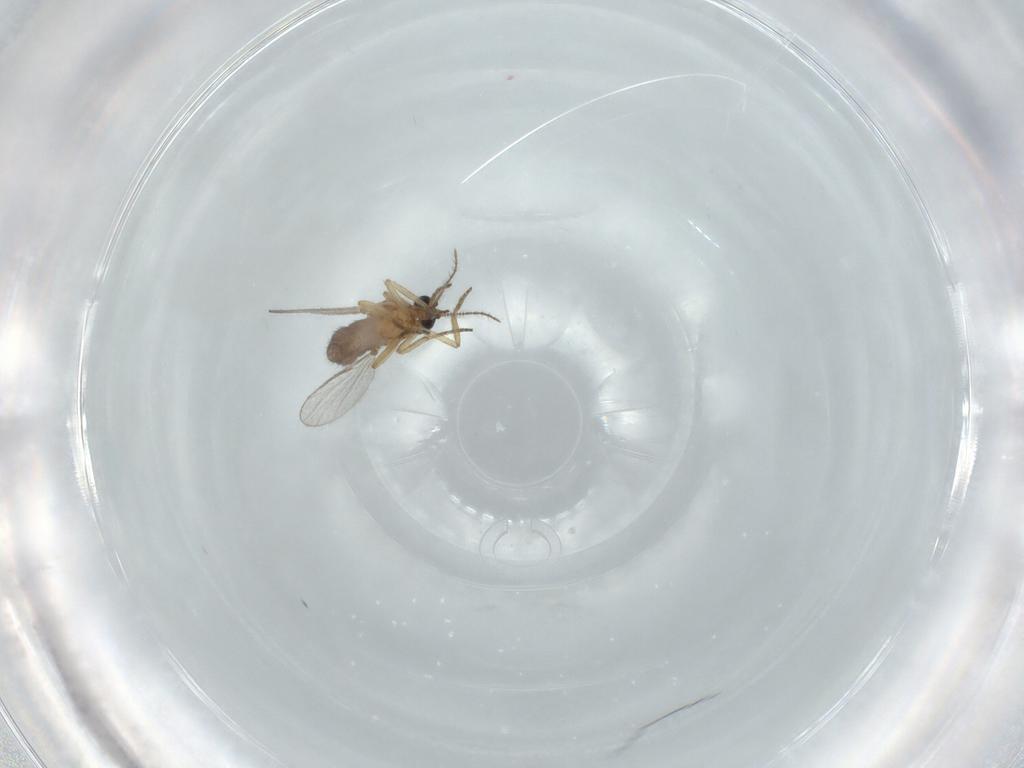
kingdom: Animalia
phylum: Arthropoda
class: Insecta
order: Diptera
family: Ceratopogonidae
